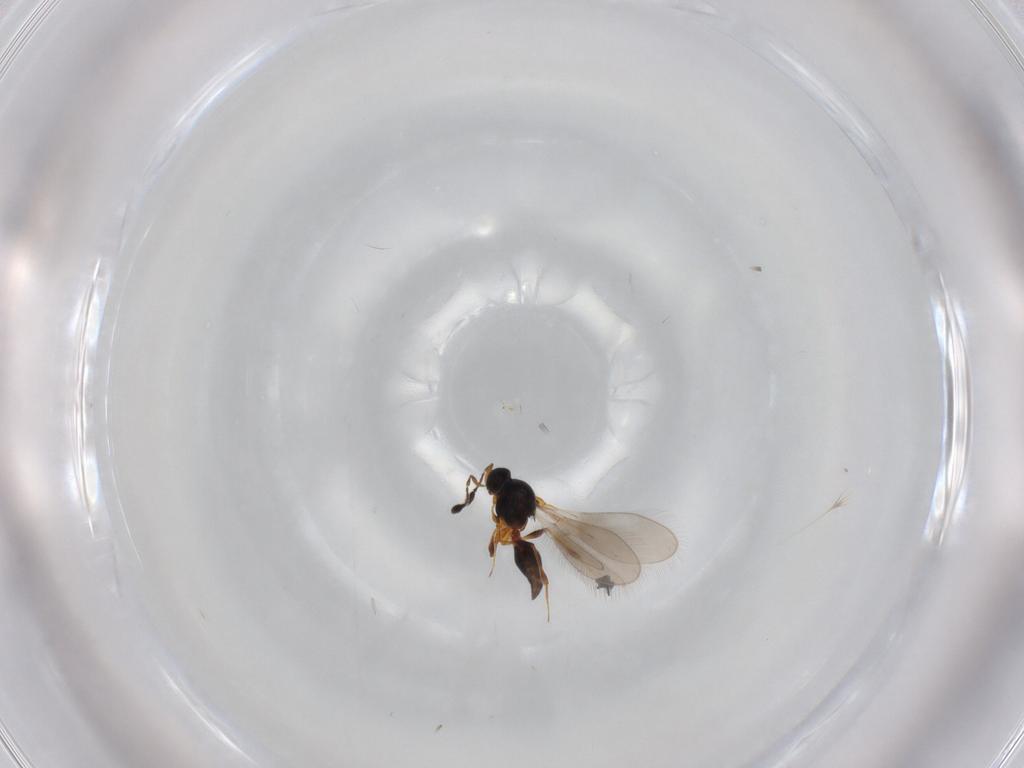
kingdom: Animalia
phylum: Arthropoda
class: Insecta
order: Hymenoptera
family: Platygastridae
